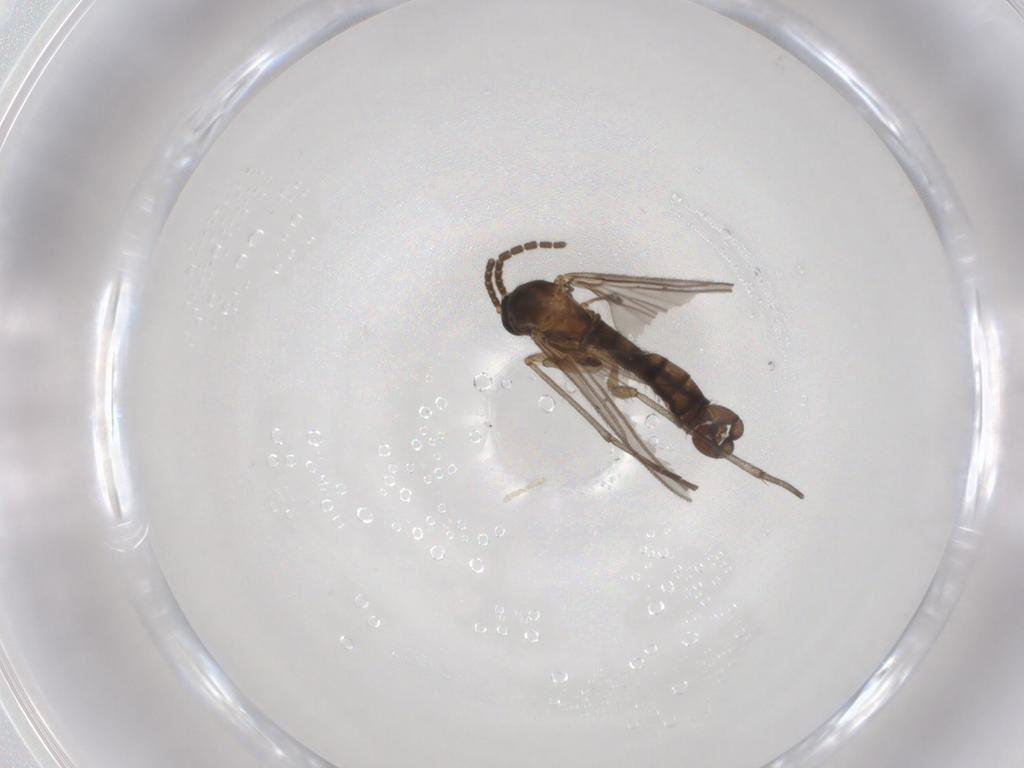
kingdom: Animalia
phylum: Arthropoda
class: Insecta
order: Diptera
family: Sciaridae
